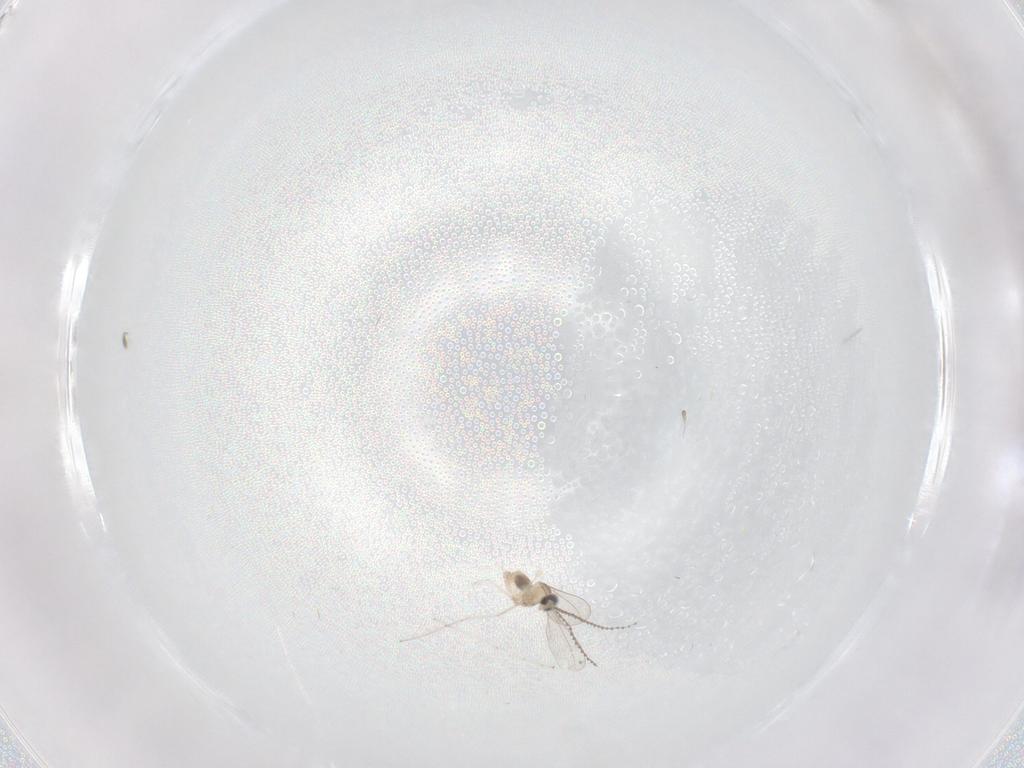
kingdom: Animalia
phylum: Arthropoda
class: Insecta
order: Diptera
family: Cecidomyiidae
